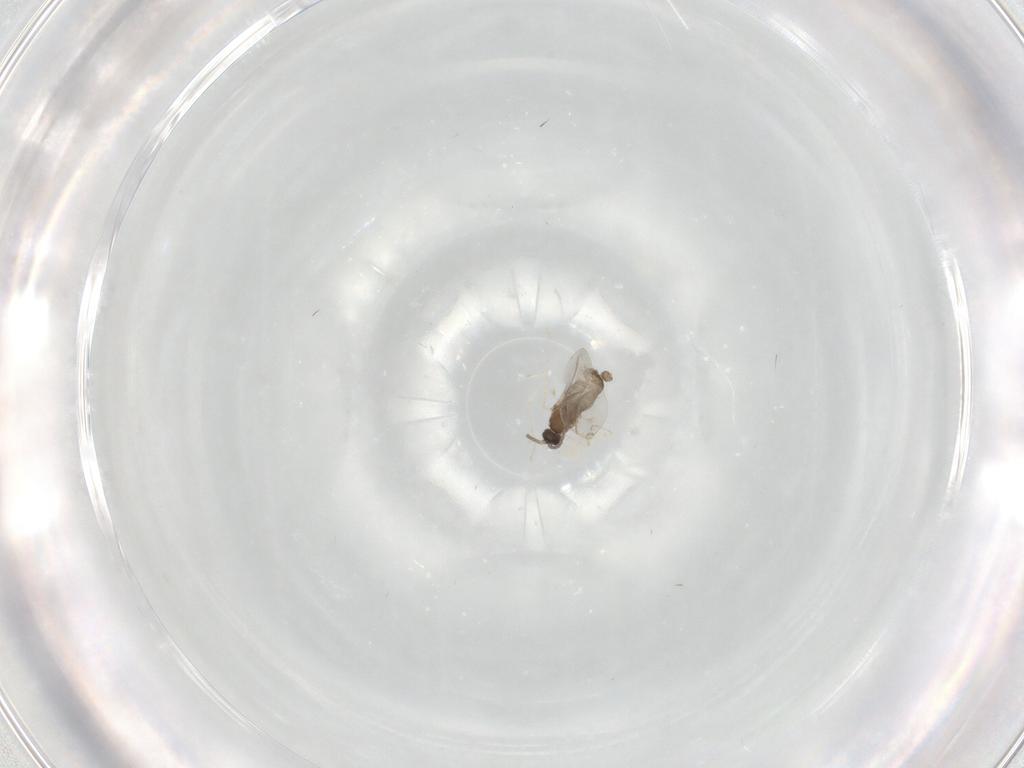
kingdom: Animalia
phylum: Arthropoda
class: Insecta
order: Diptera
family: Cecidomyiidae
